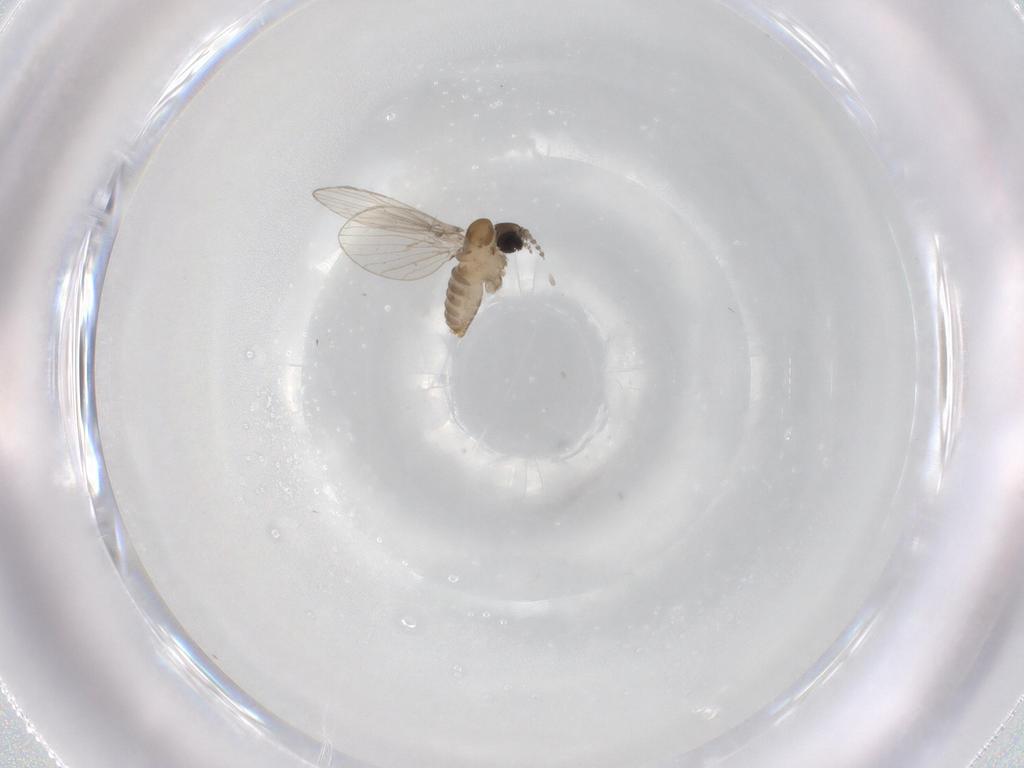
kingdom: Animalia
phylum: Arthropoda
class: Insecta
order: Diptera
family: Psychodidae
